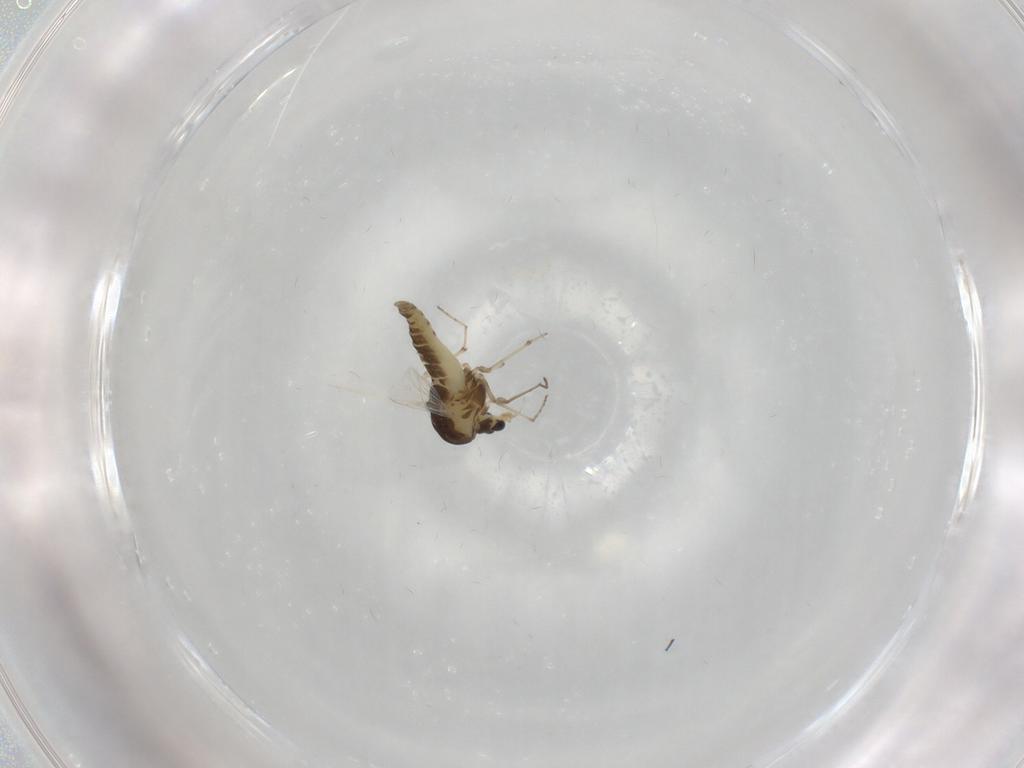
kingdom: Animalia
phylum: Arthropoda
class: Insecta
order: Diptera
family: Chironomidae
